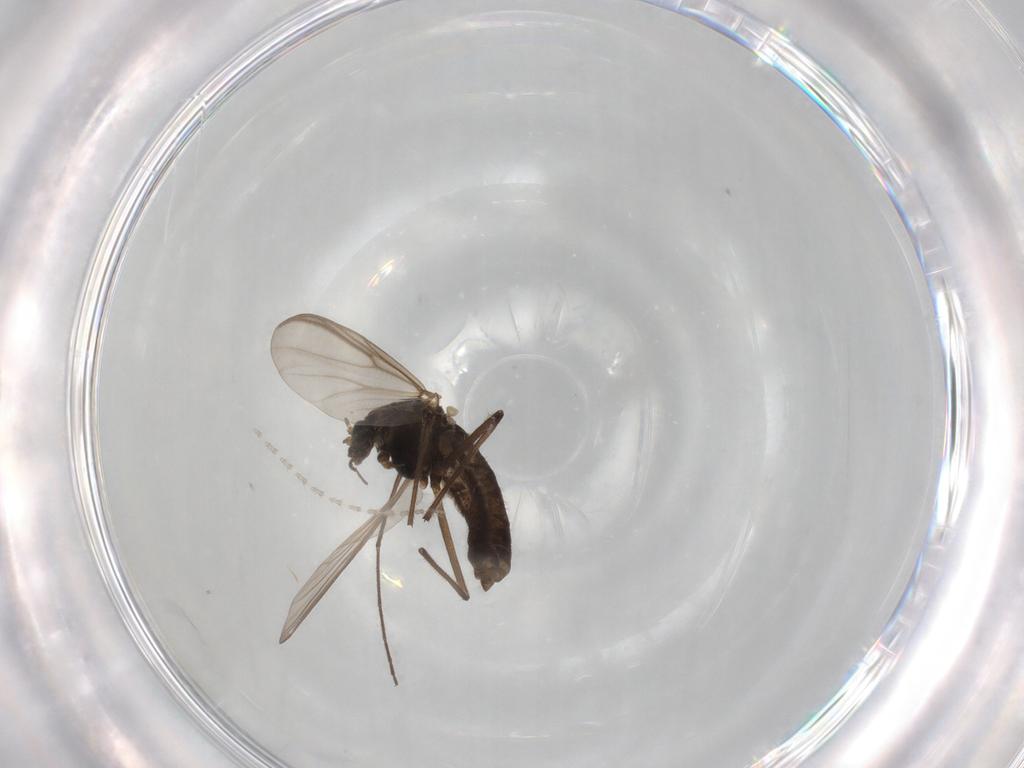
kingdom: Animalia
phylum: Arthropoda
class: Insecta
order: Diptera
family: Chironomidae
